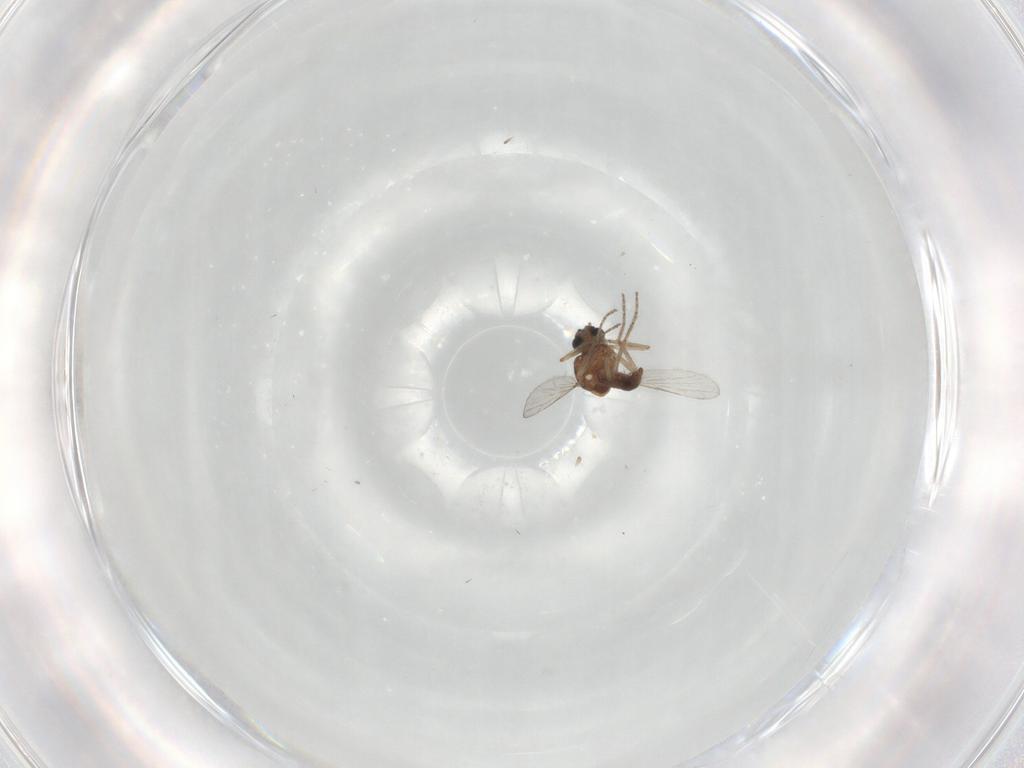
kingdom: Animalia
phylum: Arthropoda
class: Insecta
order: Diptera
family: Ceratopogonidae
